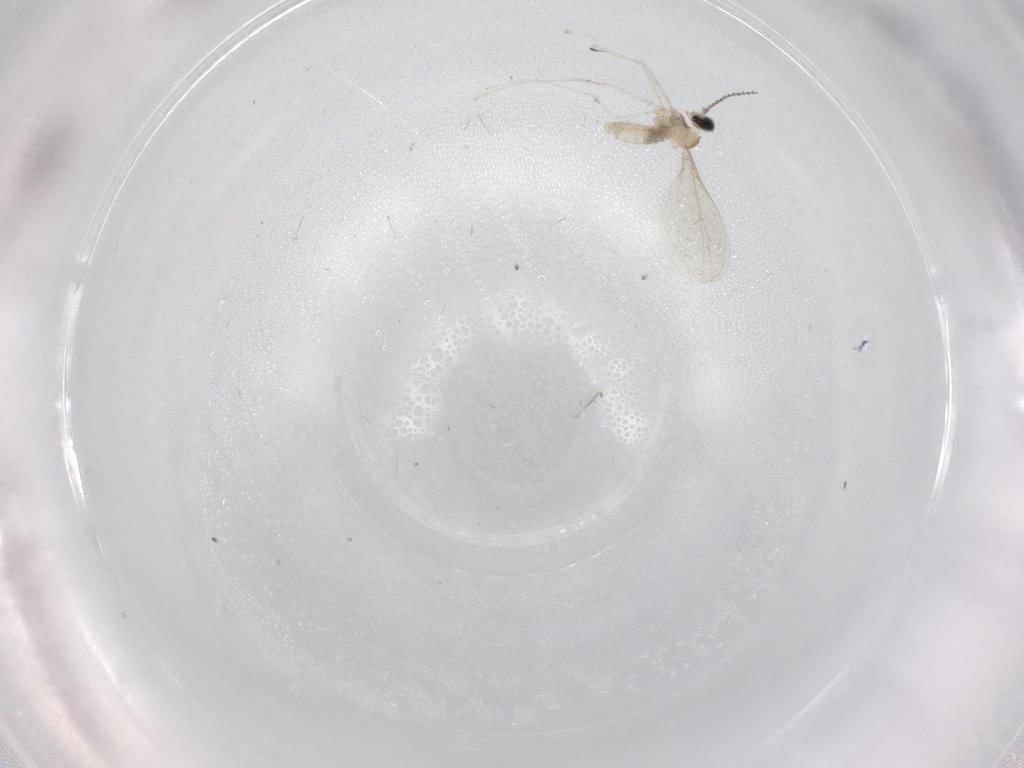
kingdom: Animalia
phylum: Arthropoda
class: Insecta
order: Diptera
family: Cecidomyiidae
